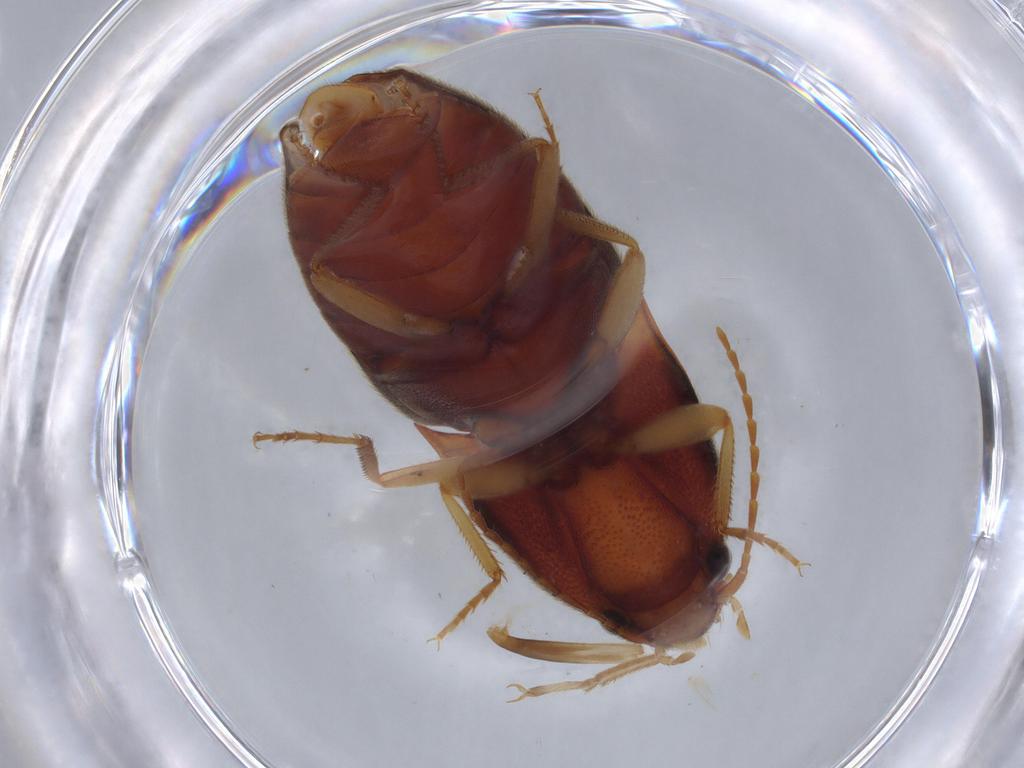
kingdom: Animalia
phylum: Arthropoda
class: Insecta
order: Coleoptera
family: Elateridae
